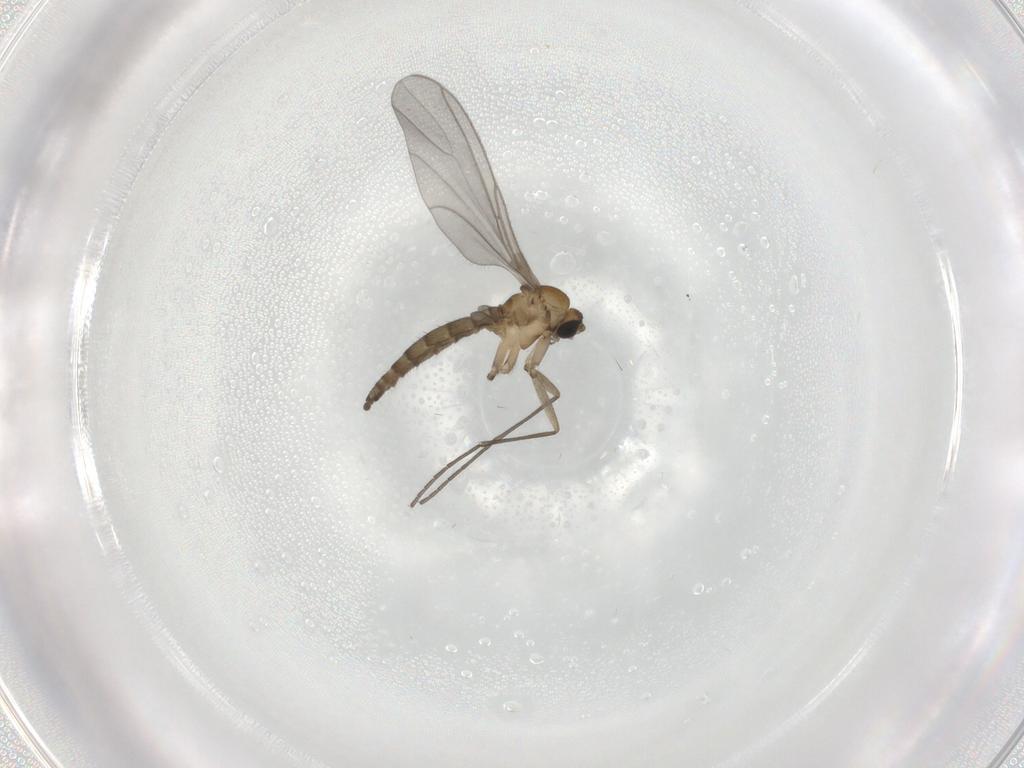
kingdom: Animalia
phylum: Arthropoda
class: Insecta
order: Diptera
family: Sciaridae
